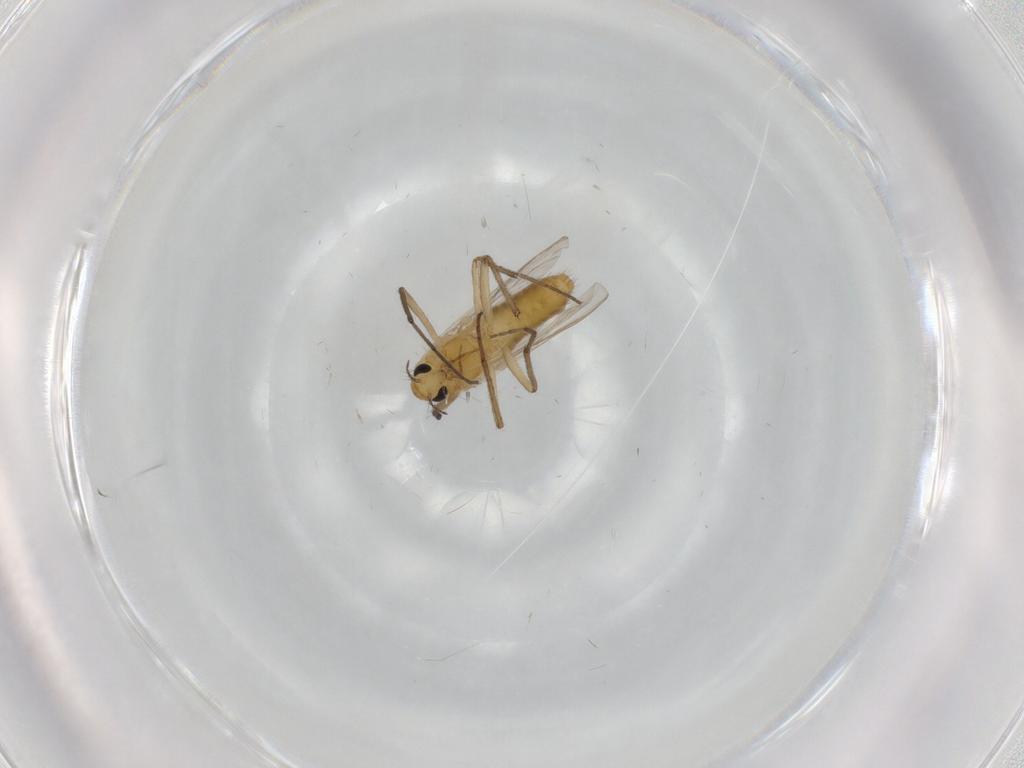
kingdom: Animalia
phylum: Arthropoda
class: Insecta
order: Diptera
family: Chironomidae
